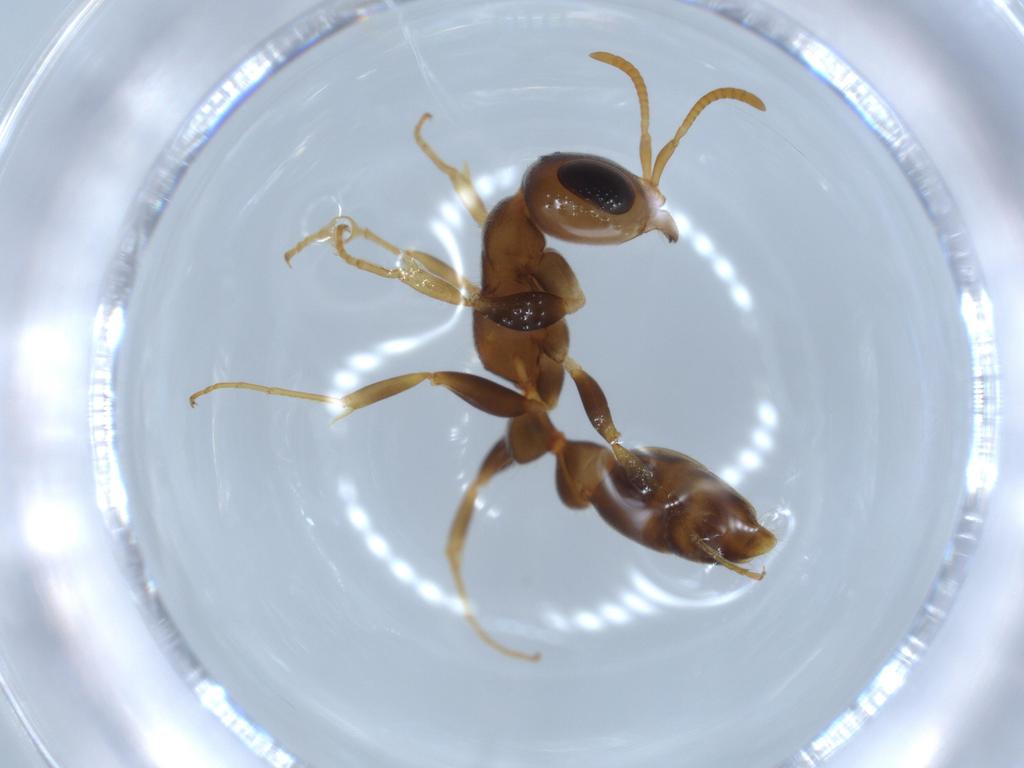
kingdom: Animalia
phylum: Arthropoda
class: Insecta
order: Hymenoptera
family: Formicidae
